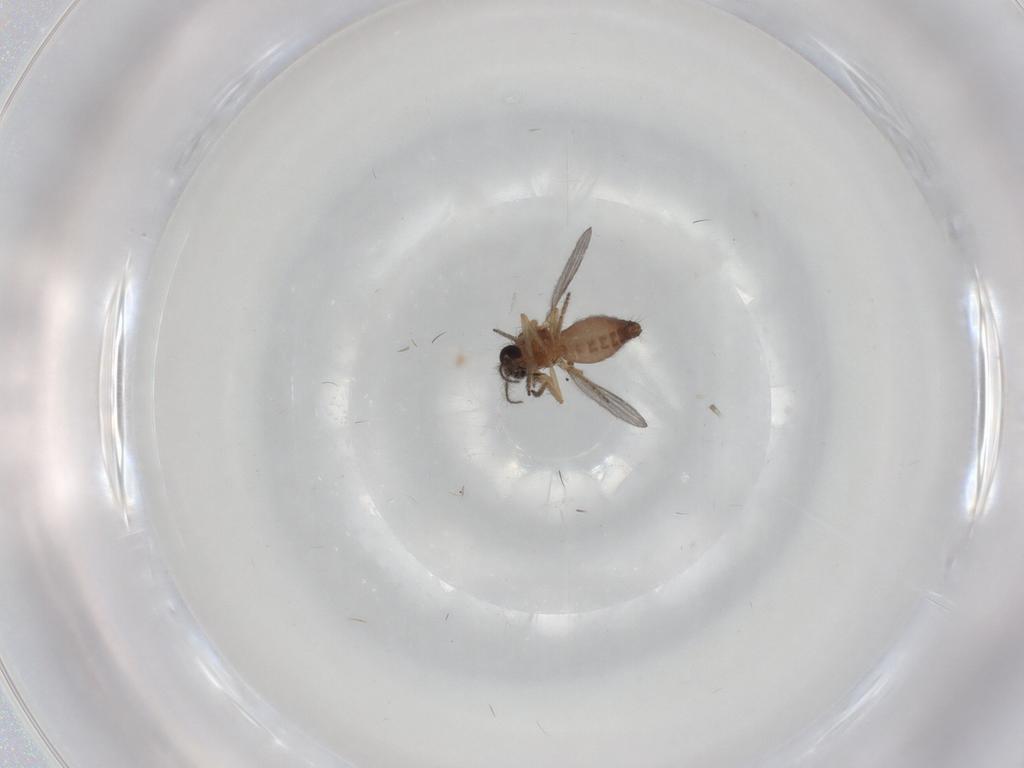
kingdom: Animalia
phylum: Arthropoda
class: Insecta
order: Diptera
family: Ceratopogonidae
